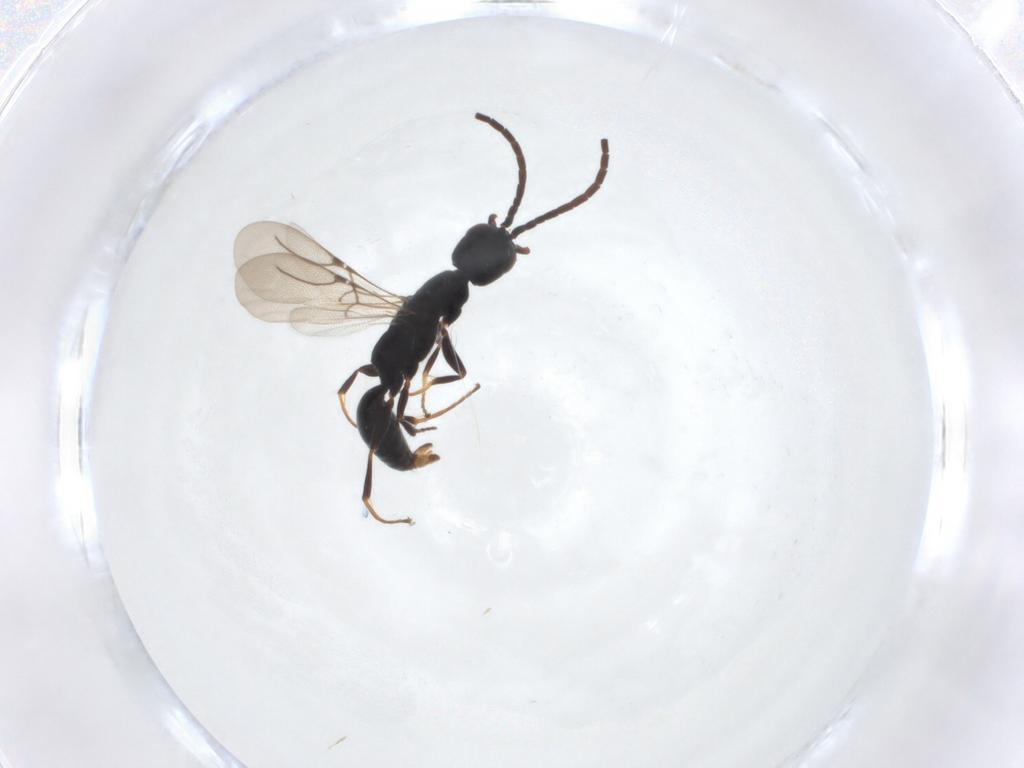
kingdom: Animalia
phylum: Arthropoda
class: Insecta
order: Hymenoptera
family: Bethylidae
